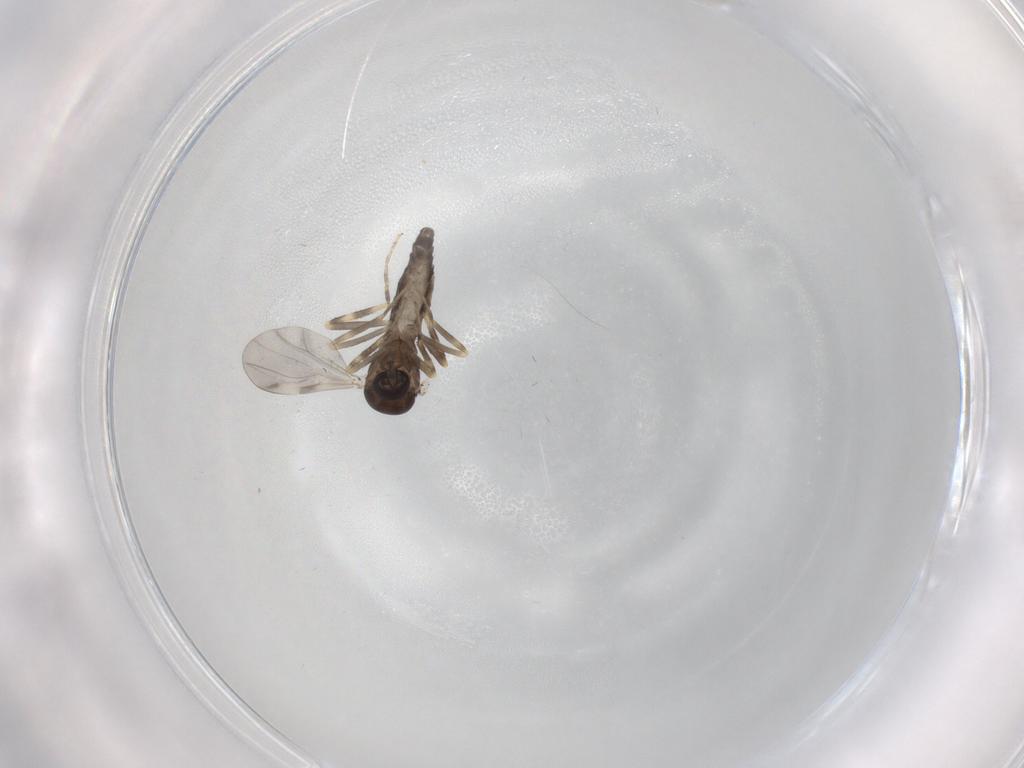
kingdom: Animalia
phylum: Arthropoda
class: Insecta
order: Diptera
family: Ceratopogonidae
